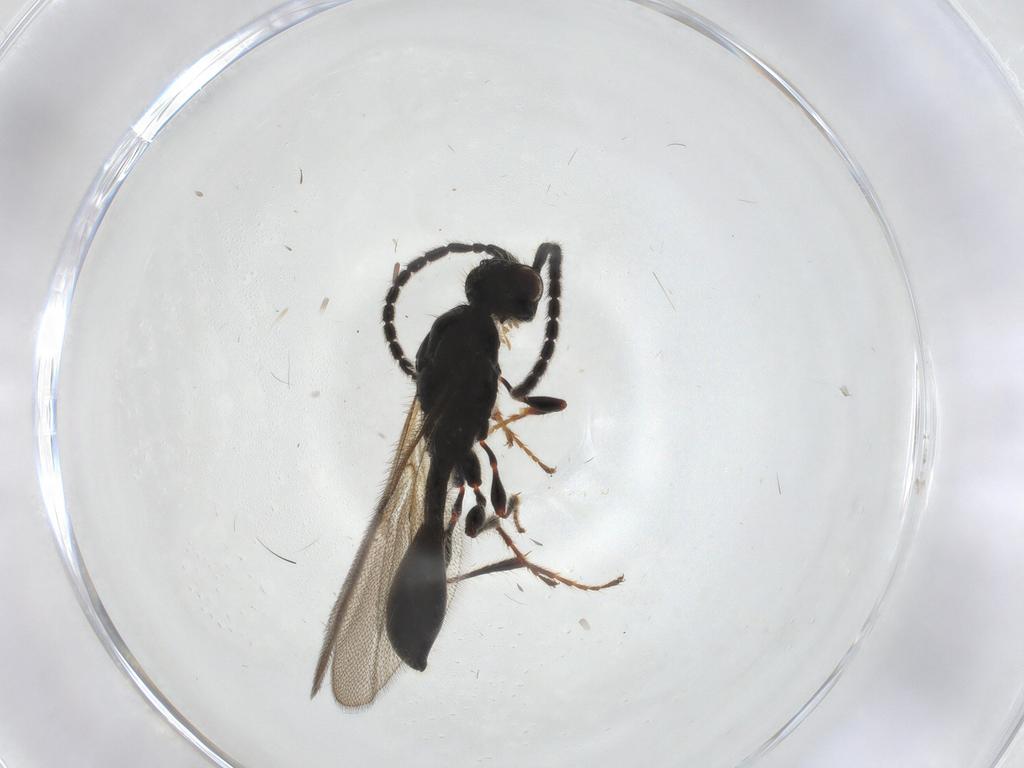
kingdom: Animalia
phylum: Arthropoda
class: Insecta
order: Hymenoptera
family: Diapriidae
